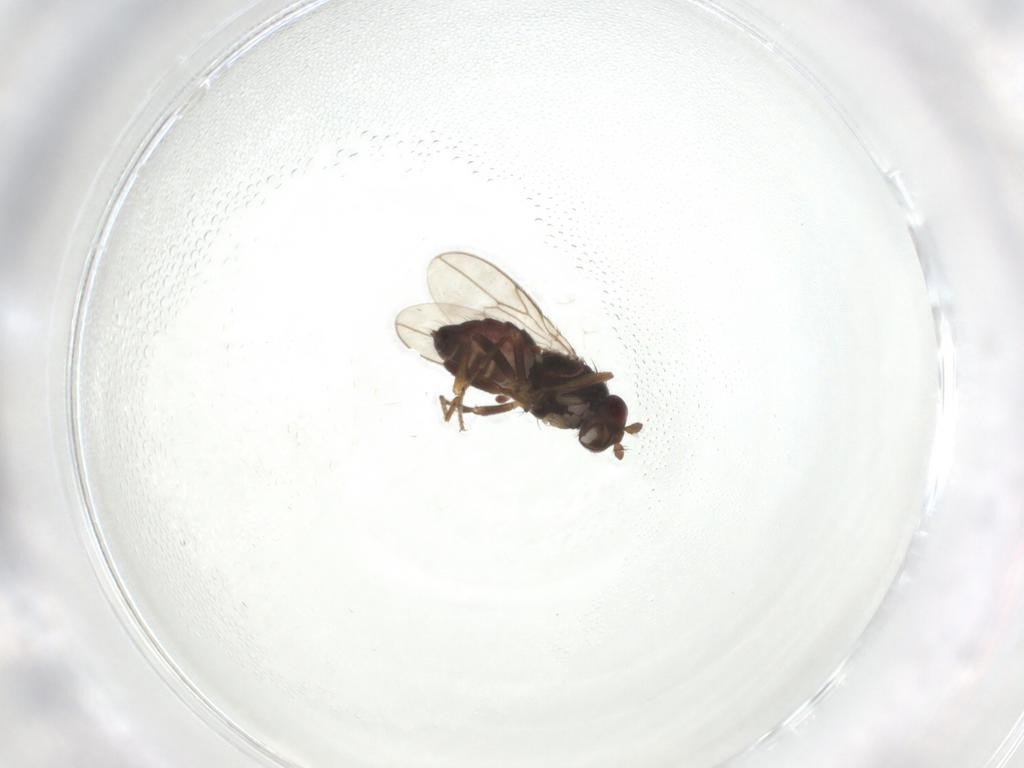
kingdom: Animalia
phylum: Arthropoda
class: Insecta
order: Diptera
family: Sphaeroceridae
